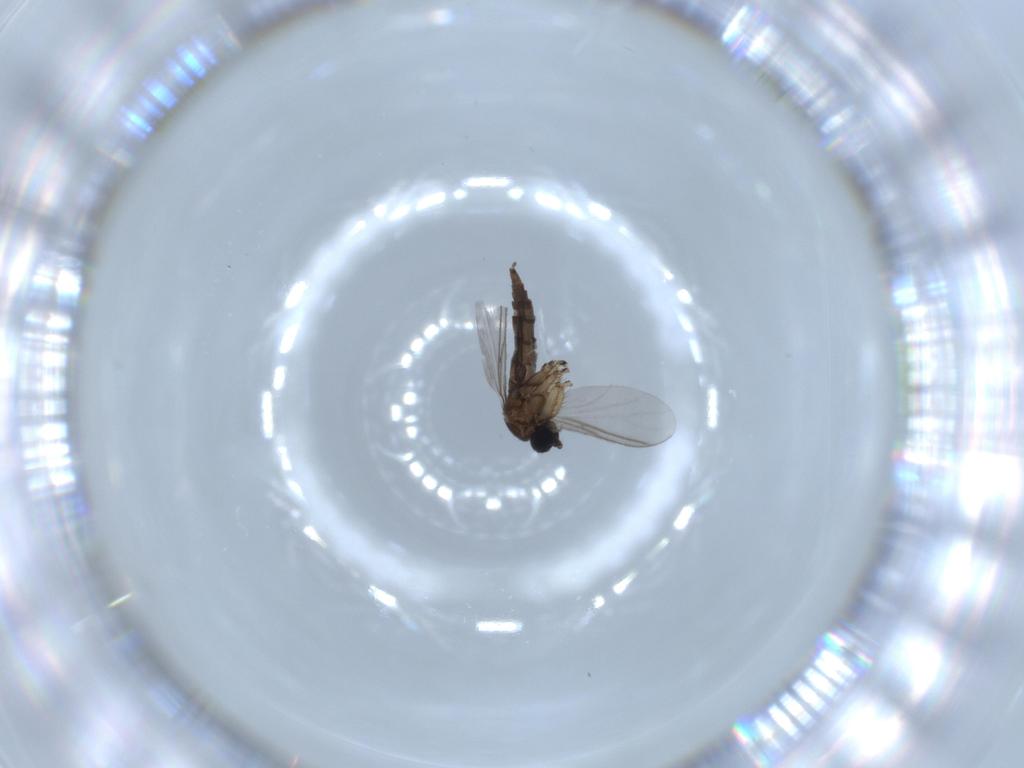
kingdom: Animalia
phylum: Arthropoda
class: Insecta
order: Diptera
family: Sciaridae
